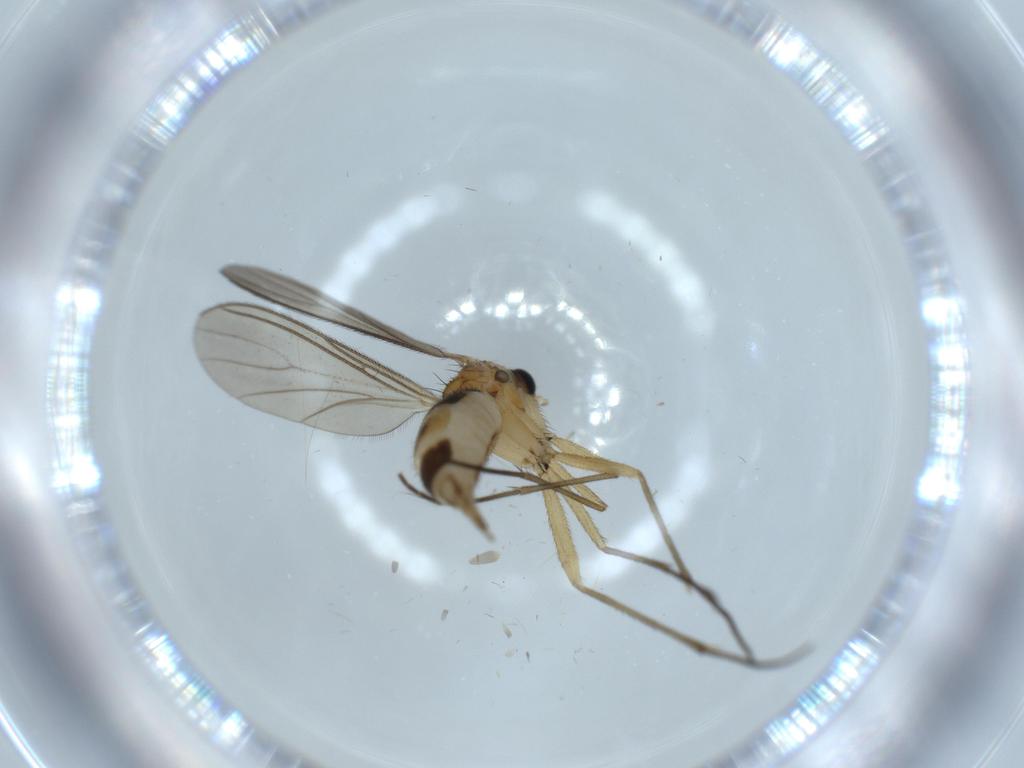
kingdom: Animalia
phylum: Arthropoda
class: Insecta
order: Diptera
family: Sciaridae
